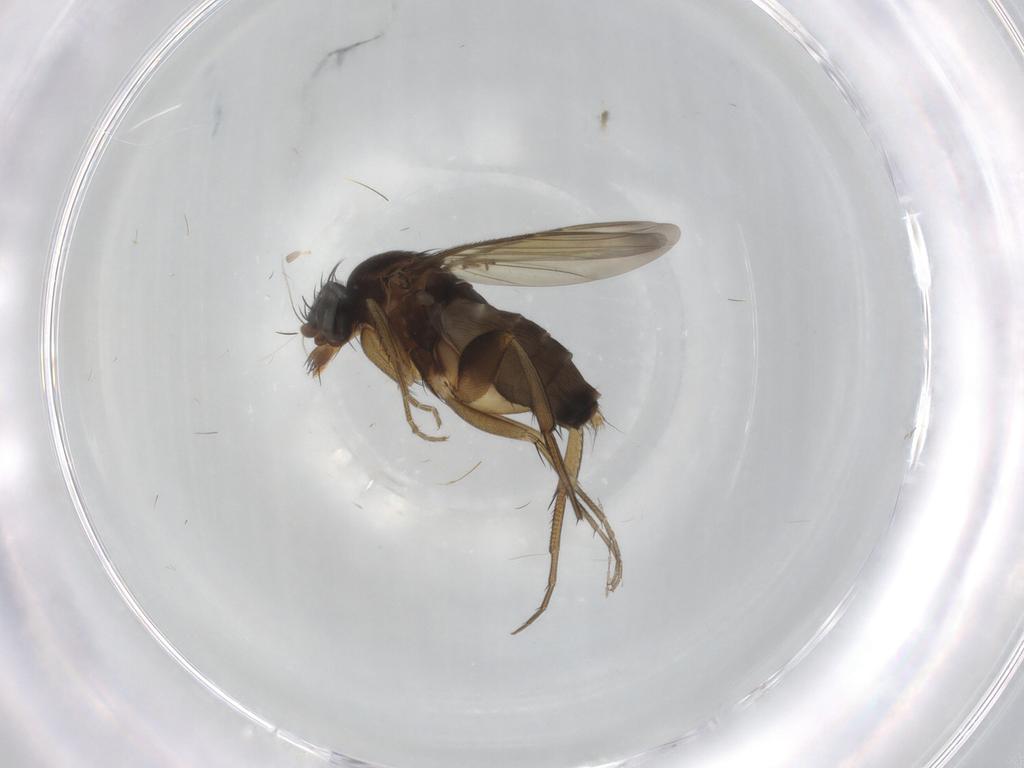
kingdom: Animalia
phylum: Arthropoda
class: Insecta
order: Diptera
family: Phoridae
